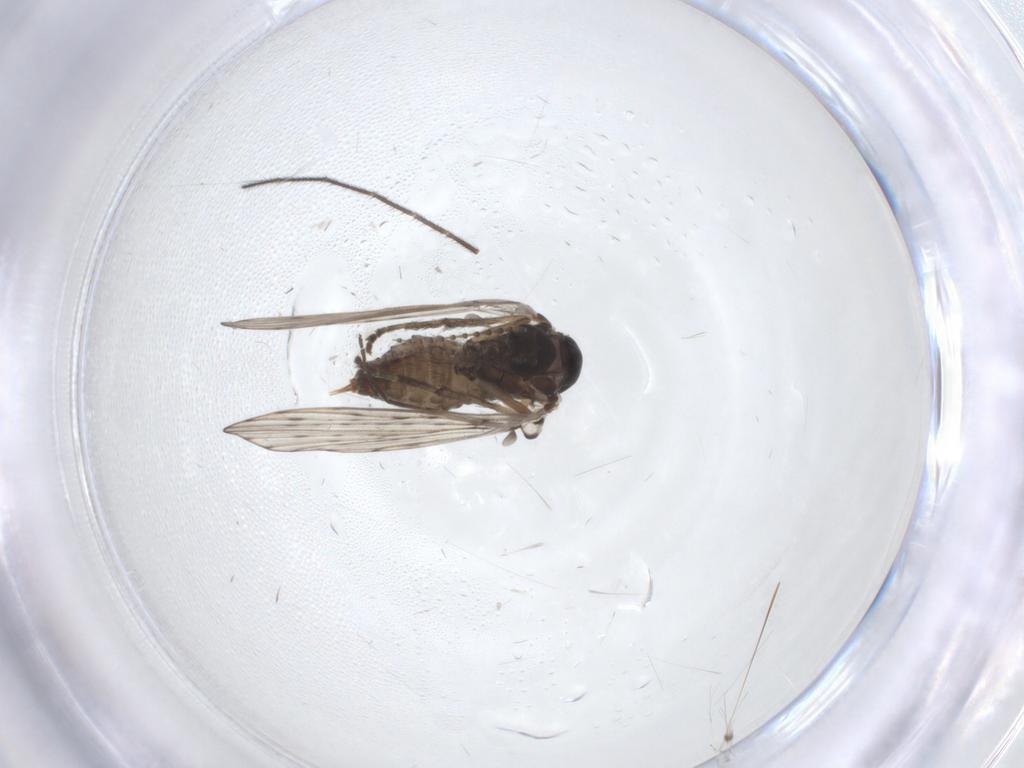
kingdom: Animalia
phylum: Arthropoda
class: Insecta
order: Diptera
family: Psychodidae
